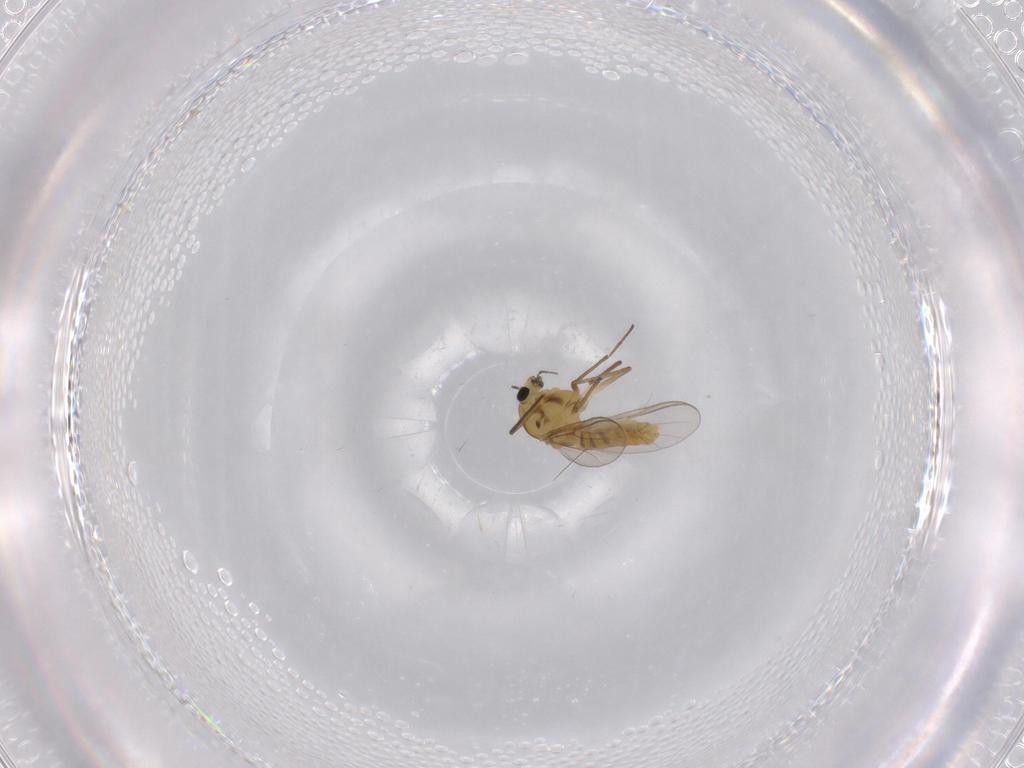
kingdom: Animalia
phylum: Arthropoda
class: Insecta
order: Diptera
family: Chironomidae
